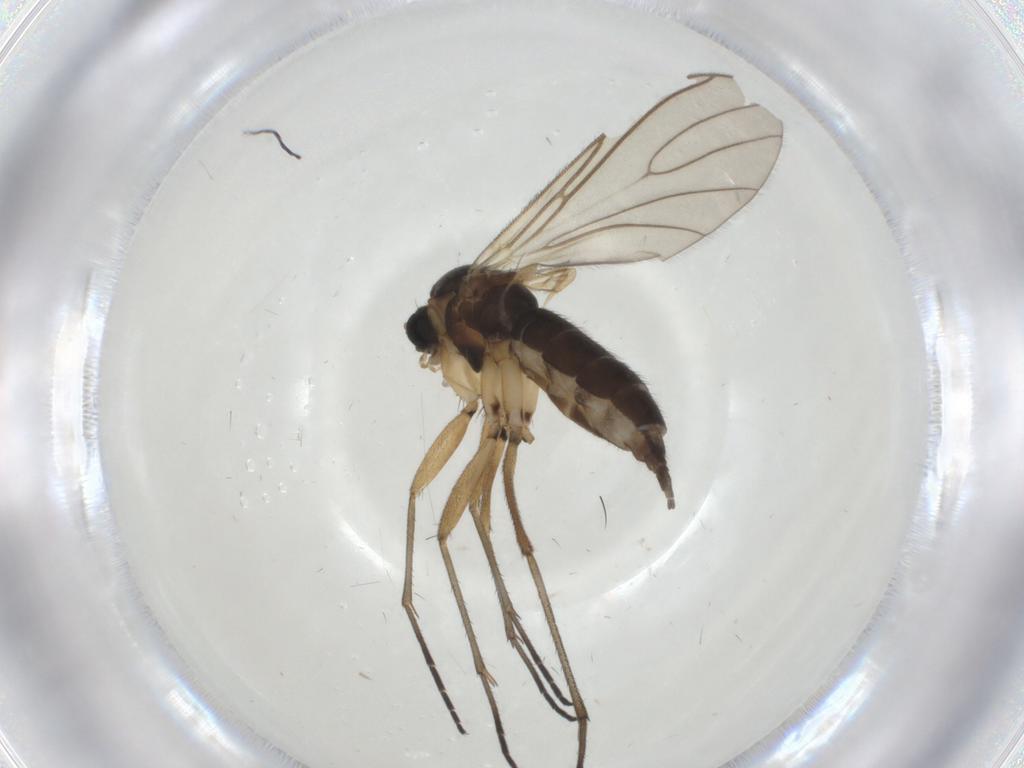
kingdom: Animalia
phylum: Arthropoda
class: Insecta
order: Diptera
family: Sciaridae
